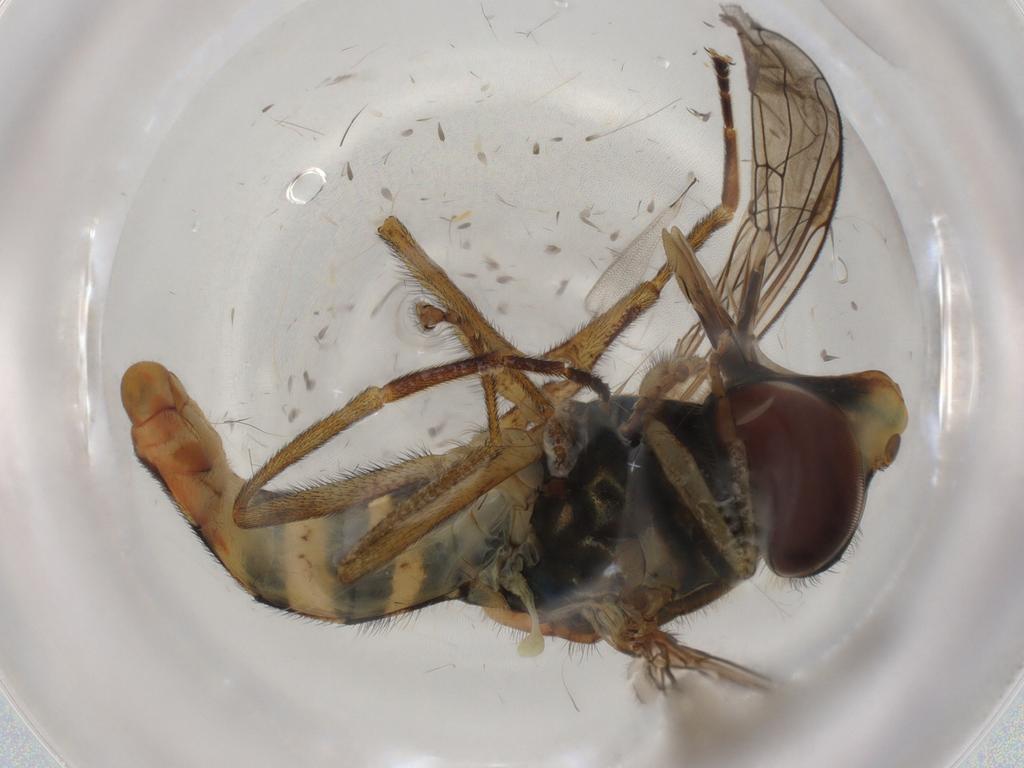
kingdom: Animalia
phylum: Arthropoda
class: Insecta
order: Diptera
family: Syrphidae
